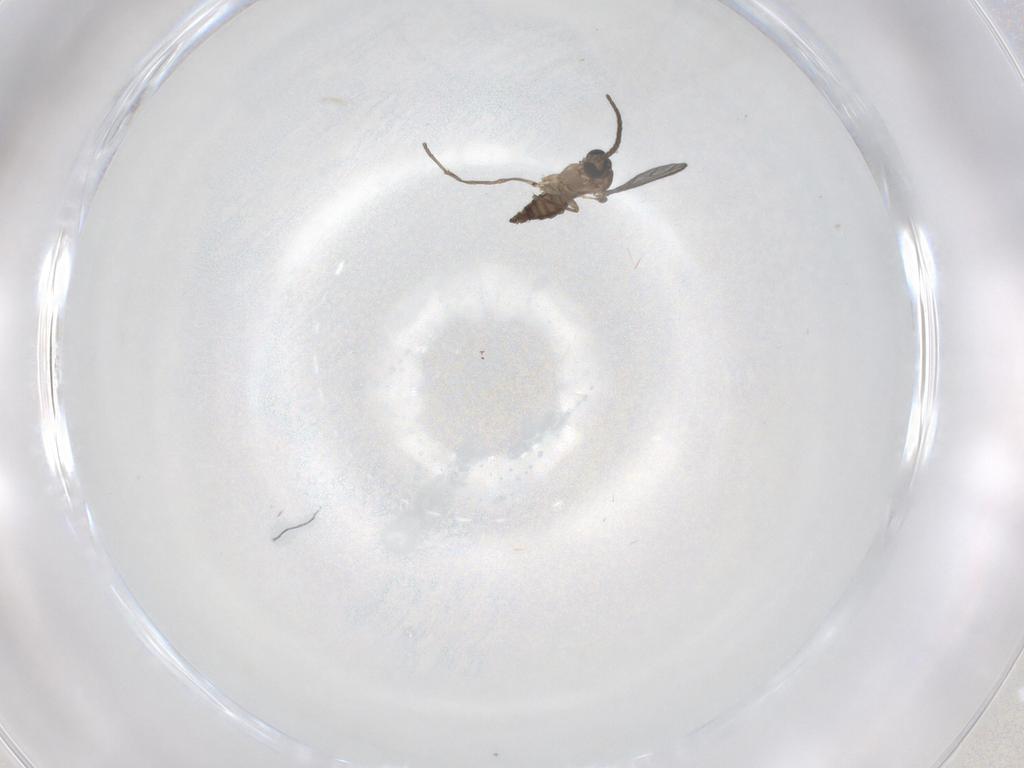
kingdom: Animalia
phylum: Arthropoda
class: Insecta
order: Diptera
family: Sciaridae
